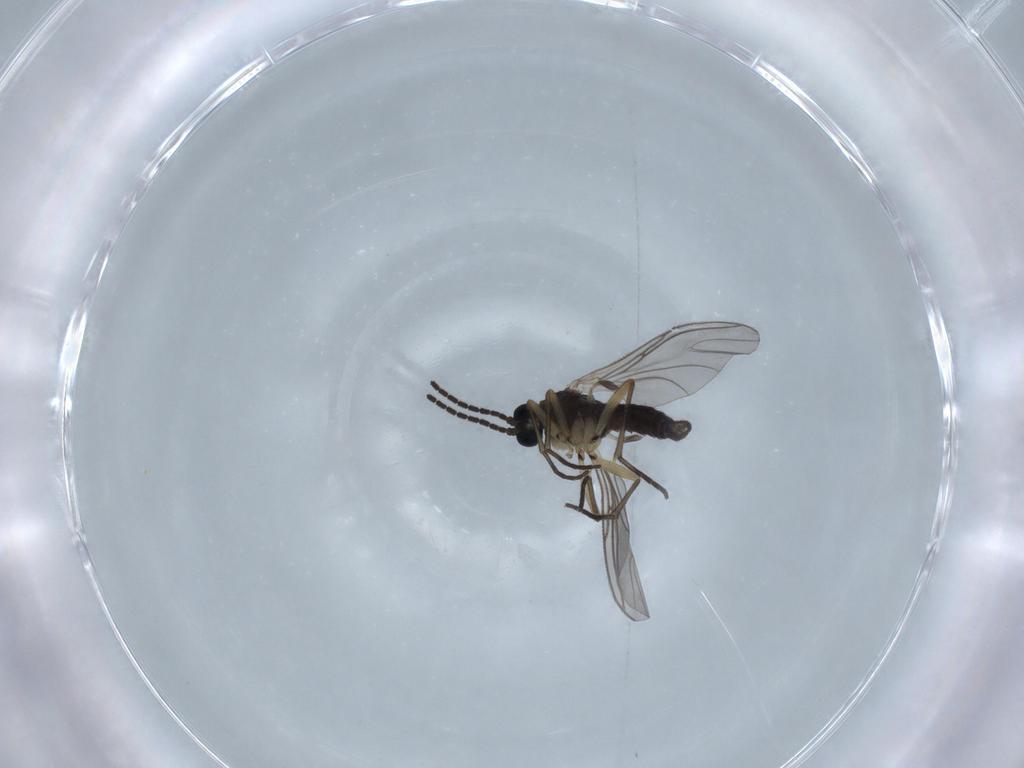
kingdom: Animalia
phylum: Arthropoda
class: Insecta
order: Diptera
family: Sciaridae
